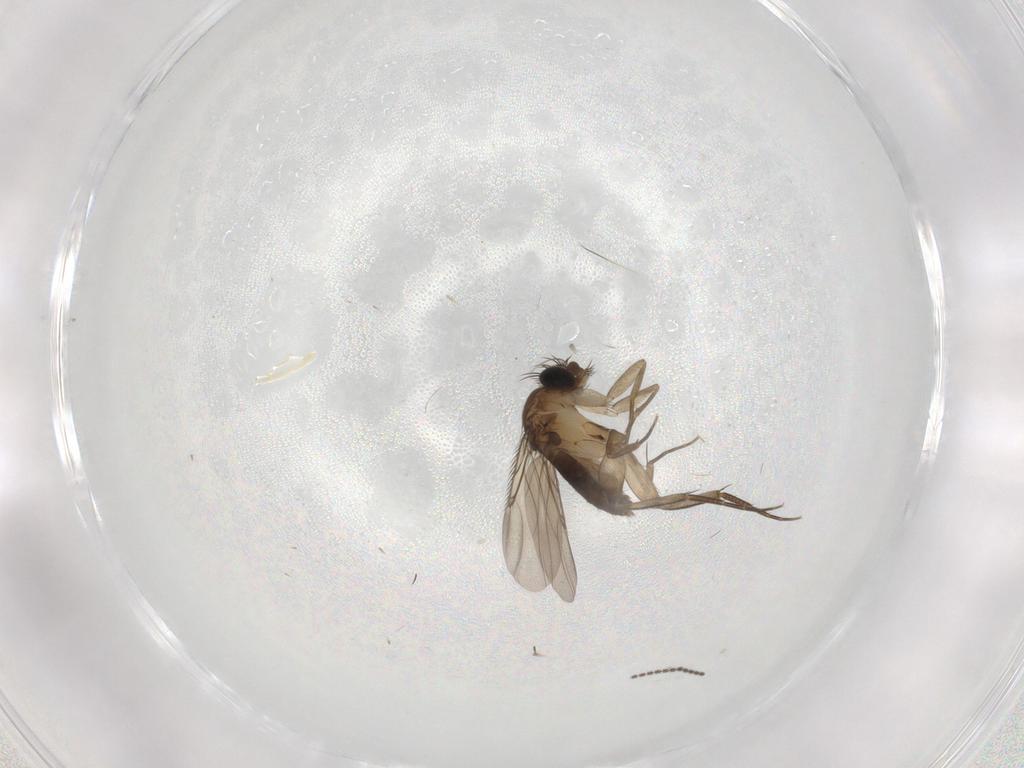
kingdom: Animalia
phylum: Arthropoda
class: Insecta
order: Diptera
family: Phoridae
